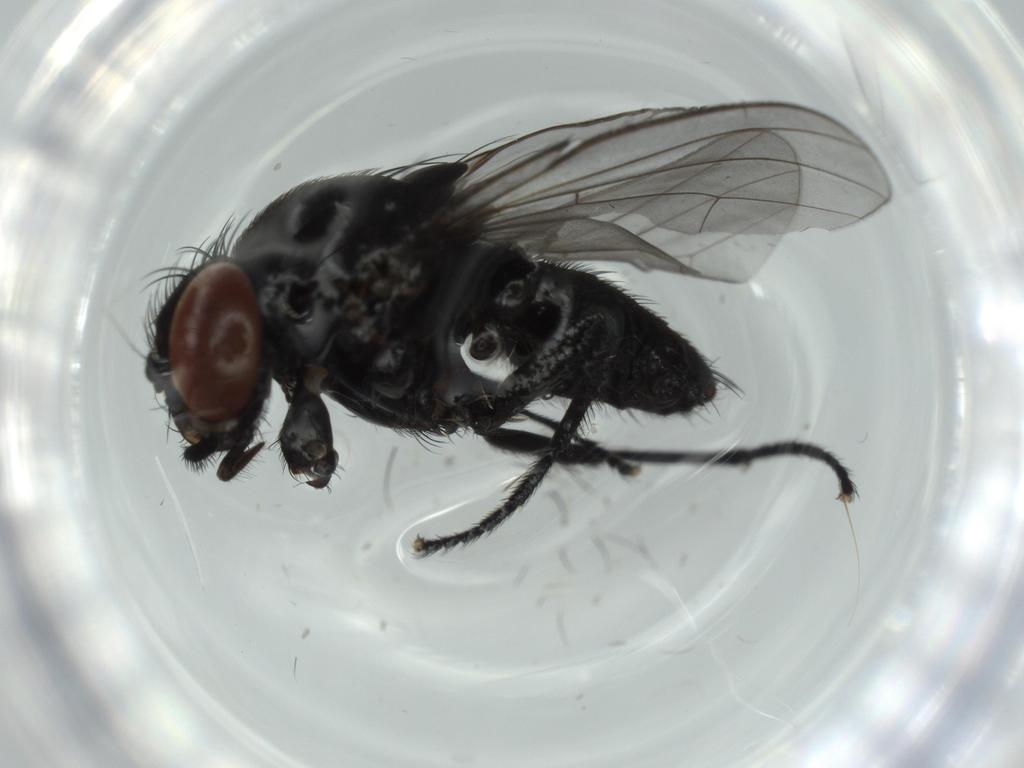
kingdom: Animalia
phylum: Arthropoda
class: Insecta
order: Diptera
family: Milichiidae
